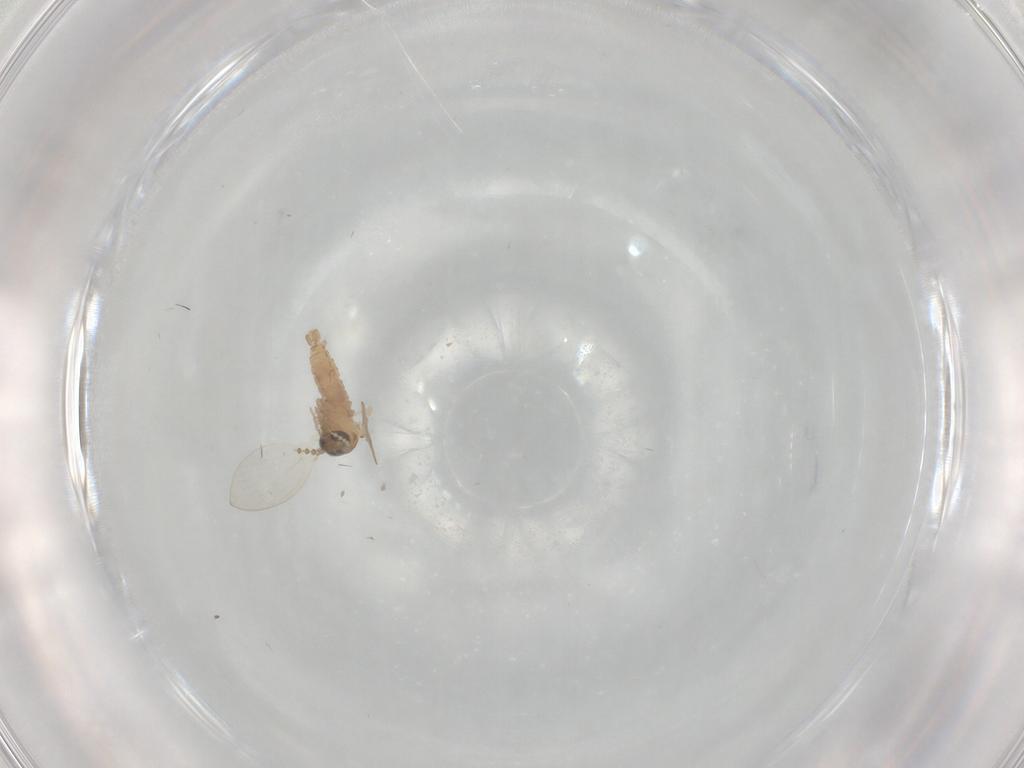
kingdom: Animalia
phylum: Arthropoda
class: Insecta
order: Diptera
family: Psychodidae
